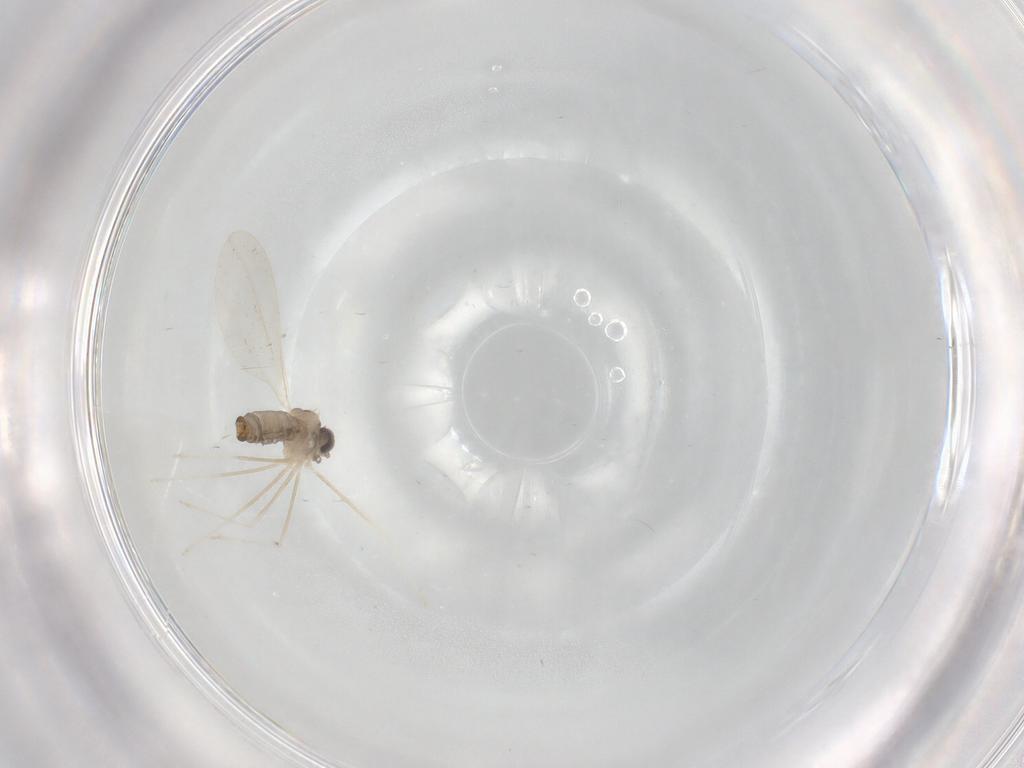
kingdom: Animalia
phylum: Arthropoda
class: Insecta
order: Diptera
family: Cecidomyiidae
